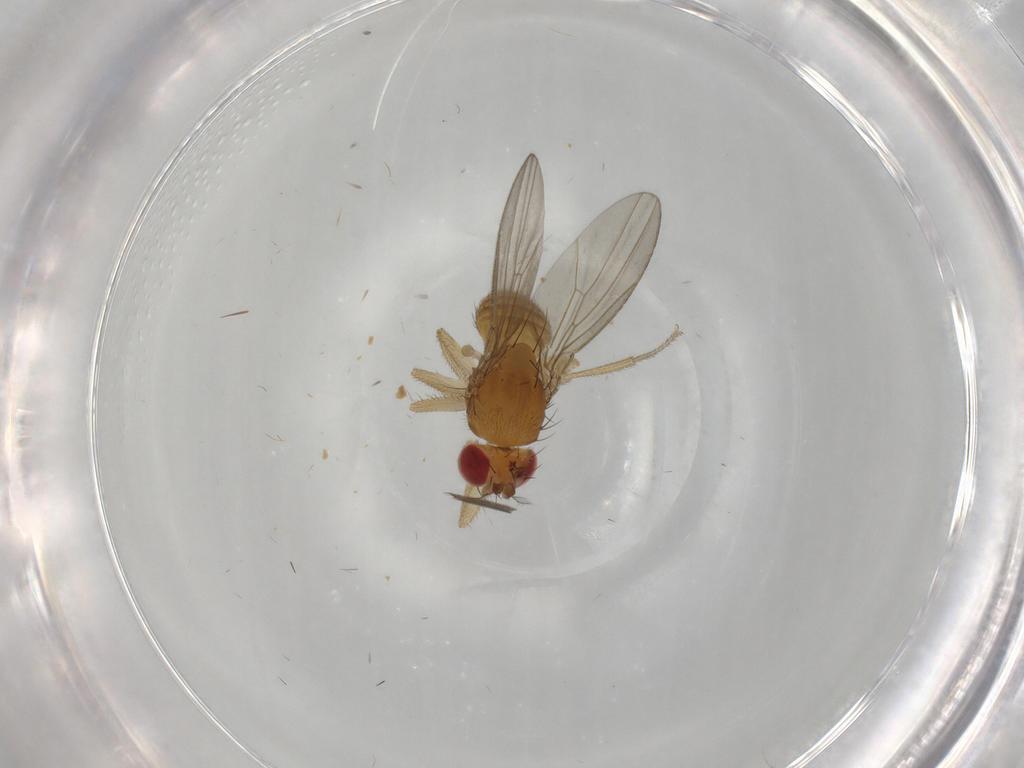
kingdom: Animalia
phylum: Arthropoda
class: Insecta
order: Diptera
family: Drosophilidae
